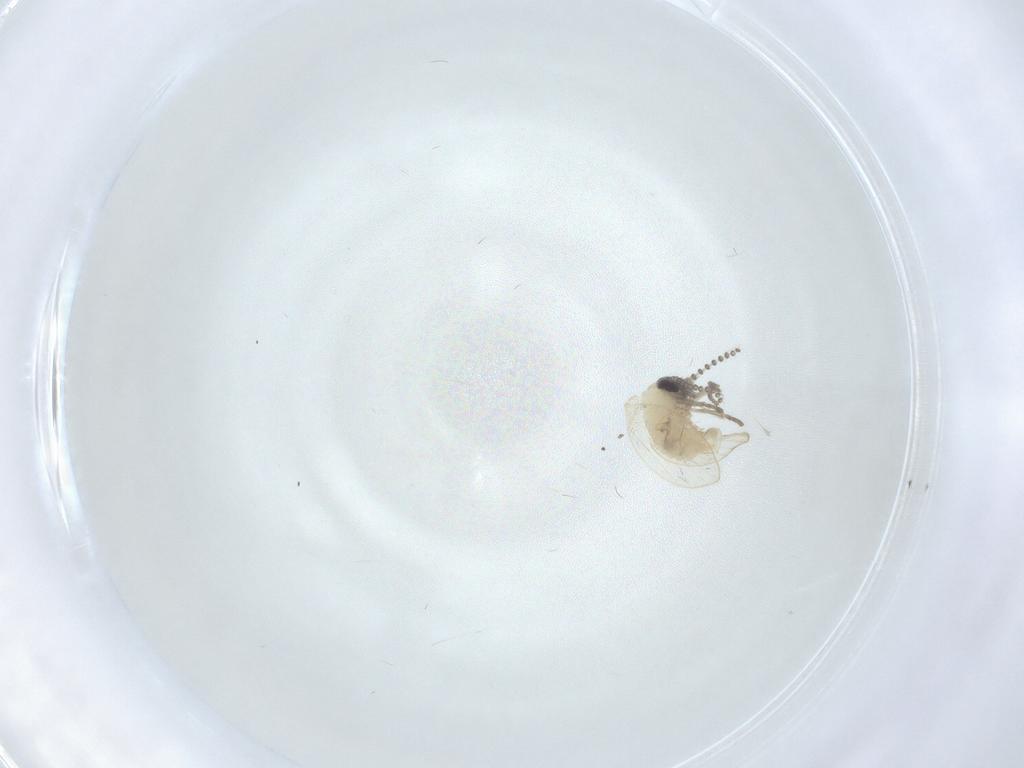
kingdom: Animalia
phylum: Arthropoda
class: Insecta
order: Diptera
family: Psychodidae
